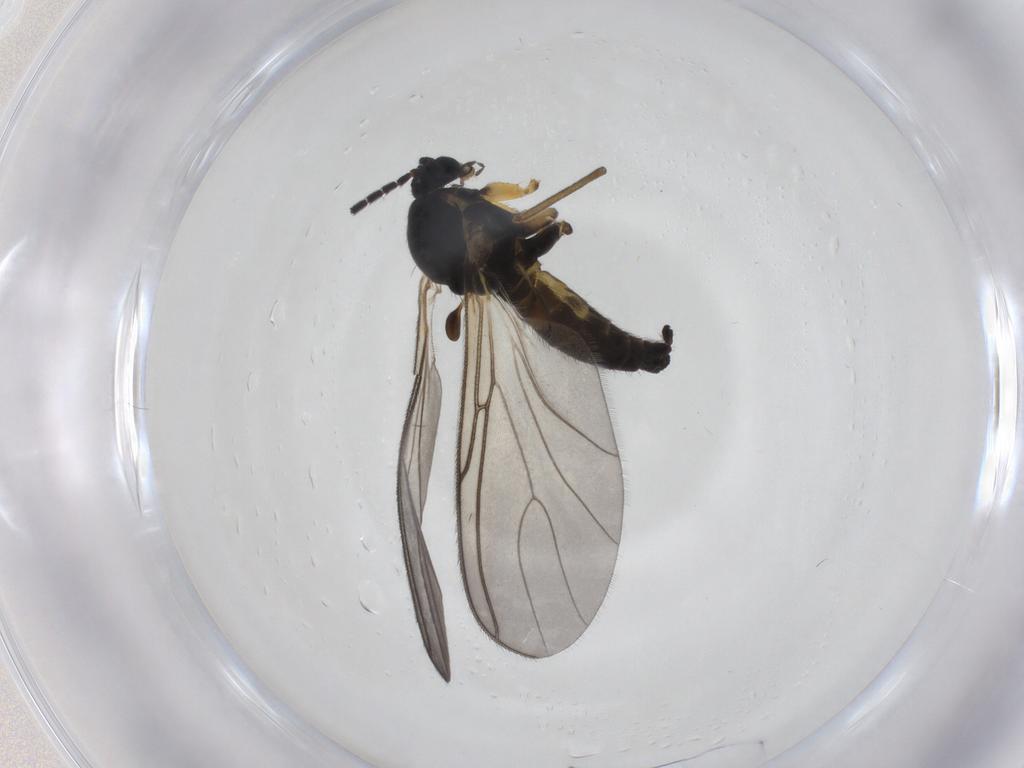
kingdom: Animalia
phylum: Arthropoda
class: Insecta
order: Diptera
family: Sciaridae
